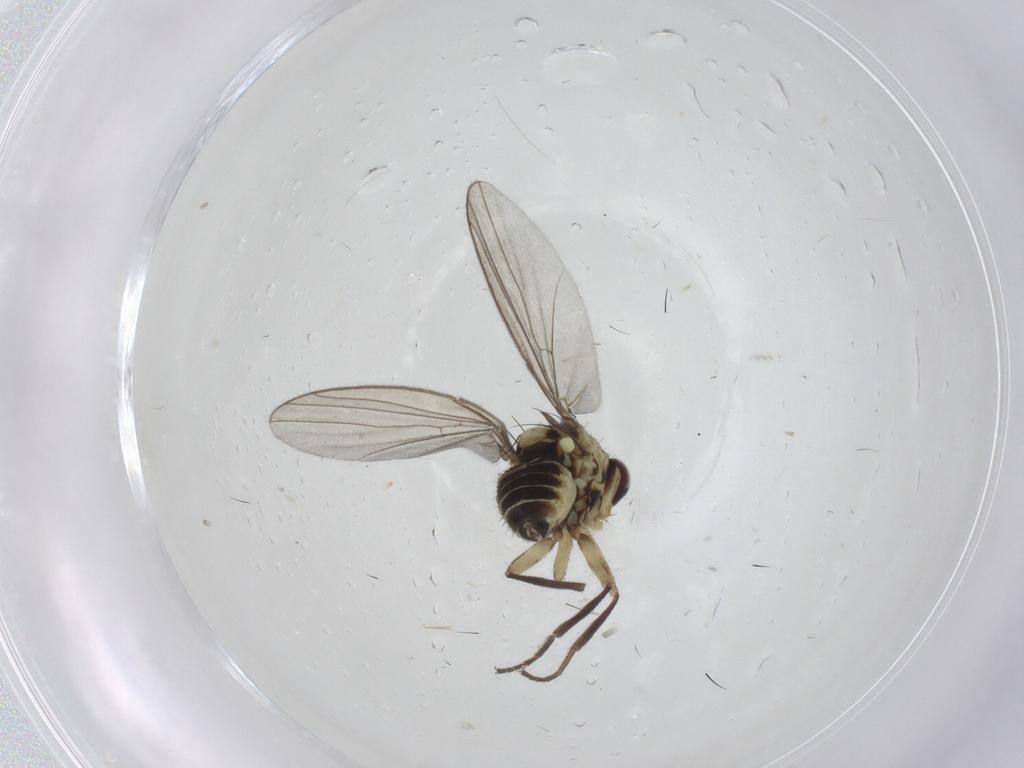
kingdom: Animalia
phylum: Arthropoda
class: Insecta
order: Diptera
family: Agromyzidae
